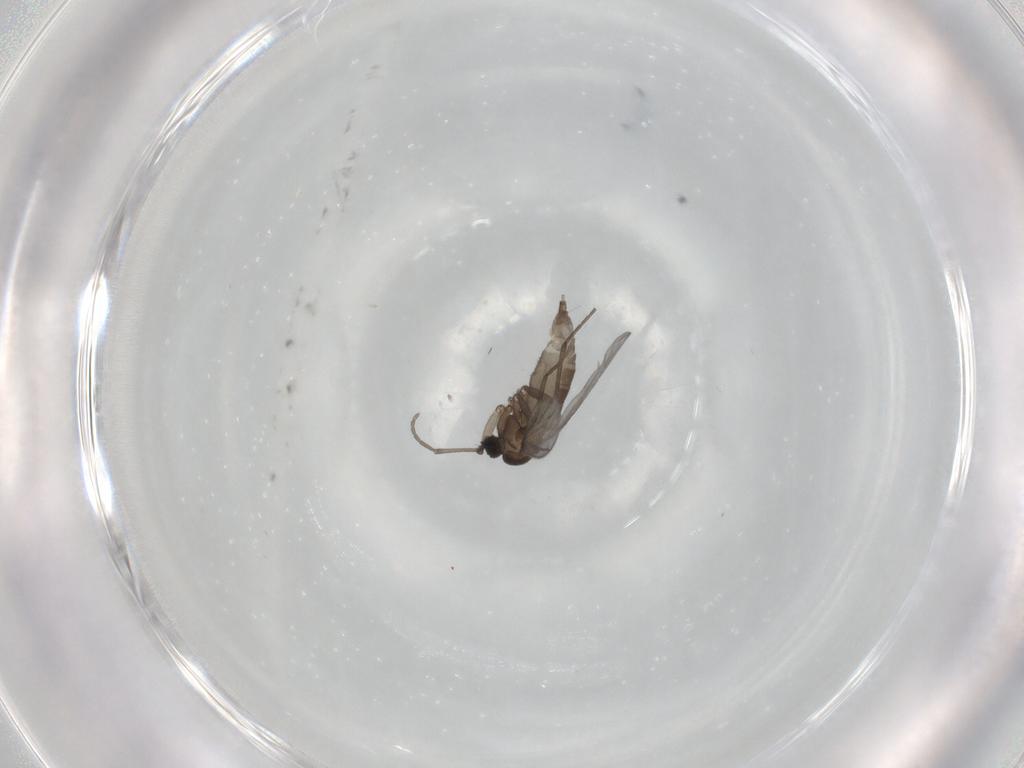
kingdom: Animalia
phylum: Arthropoda
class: Insecta
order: Diptera
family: Sciaridae
